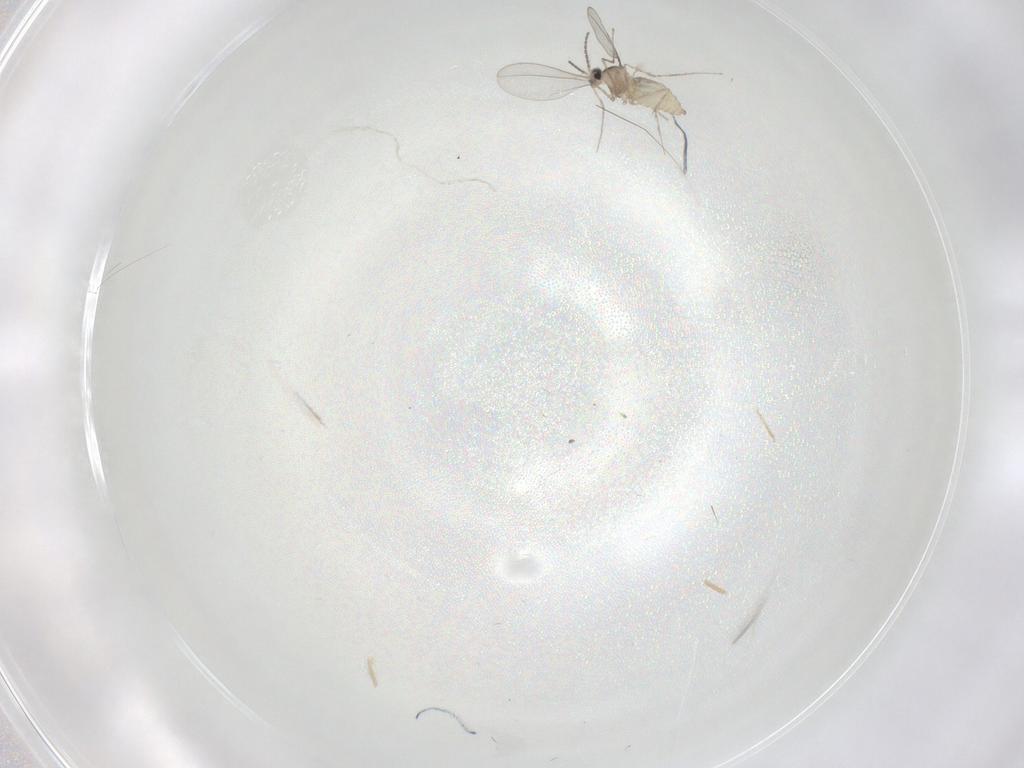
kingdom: Animalia
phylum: Arthropoda
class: Insecta
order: Diptera
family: Cecidomyiidae
